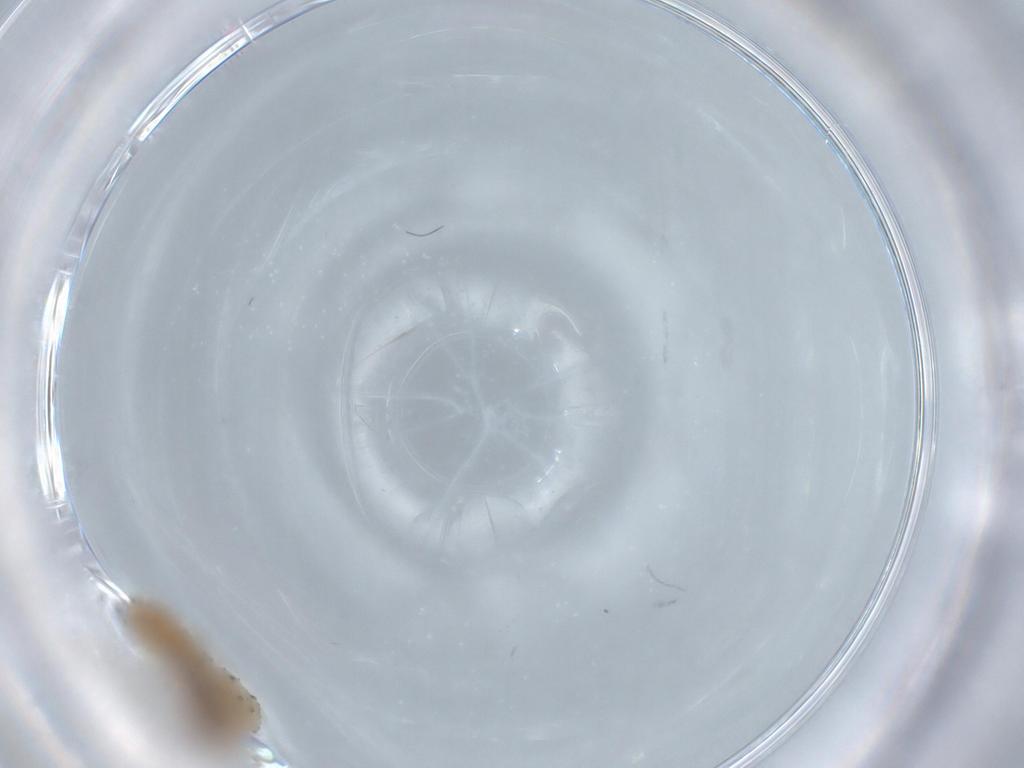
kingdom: Animalia
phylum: Arthropoda
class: Insecta
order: Lepidoptera
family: Erebidae
